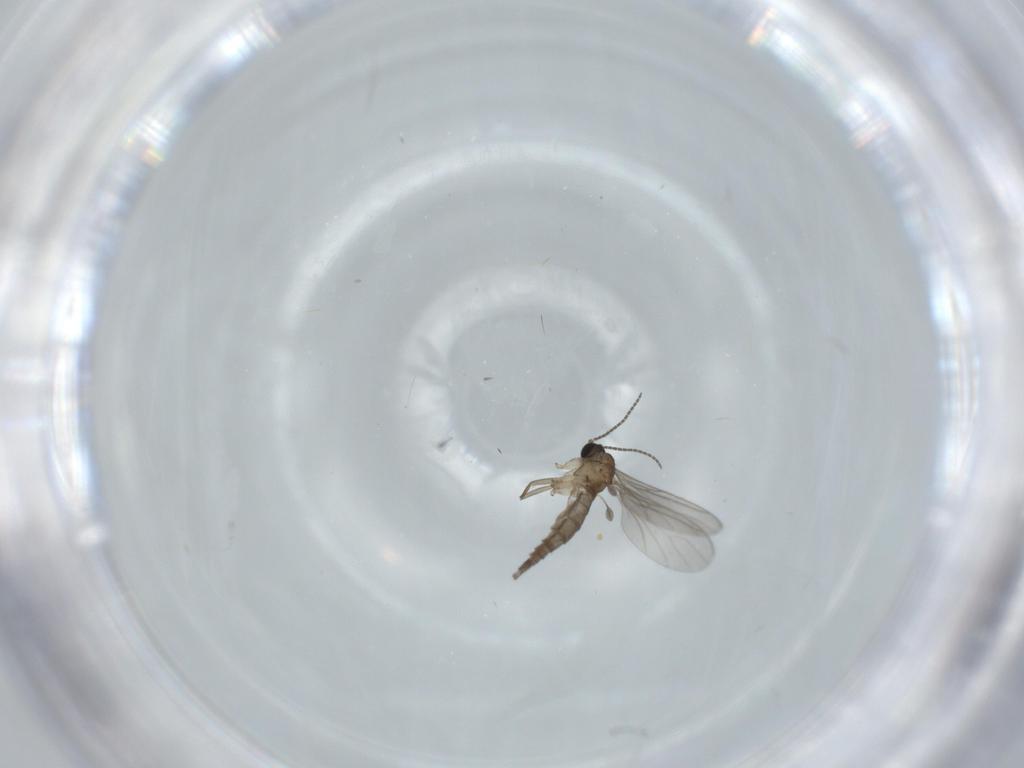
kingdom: Animalia
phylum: Arthropoda
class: Insecta
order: Diptera
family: Sciaridae
